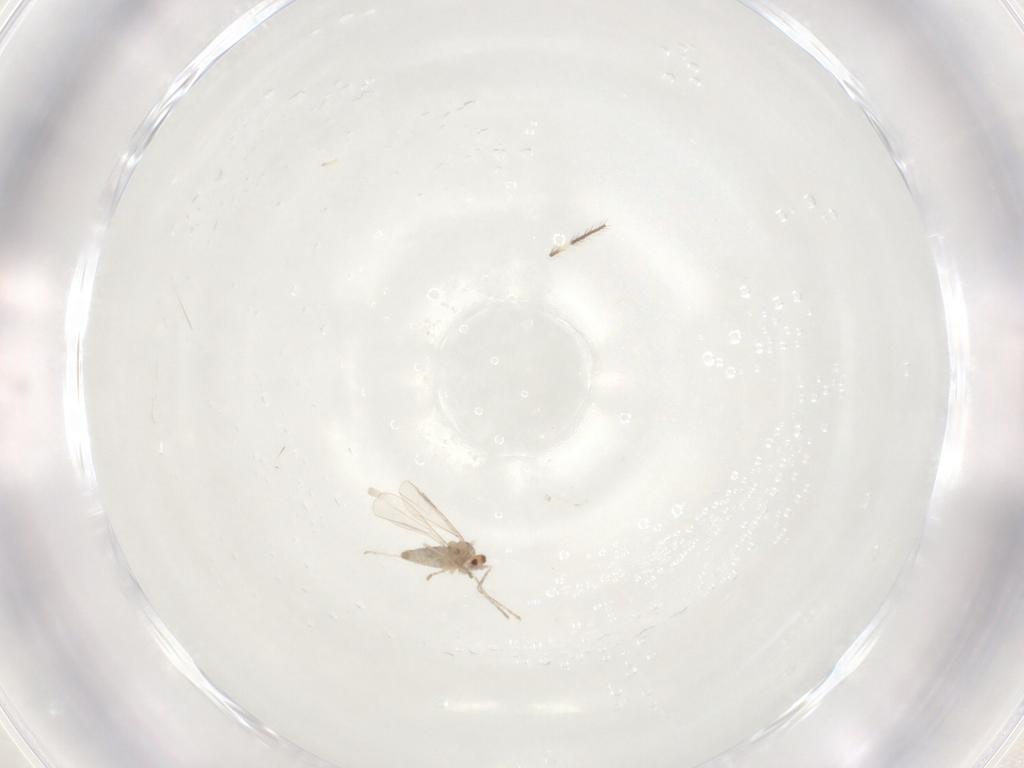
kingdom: Animalia
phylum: Arthropoda
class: Insecta
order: Diptera
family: Cecidomyiidae
